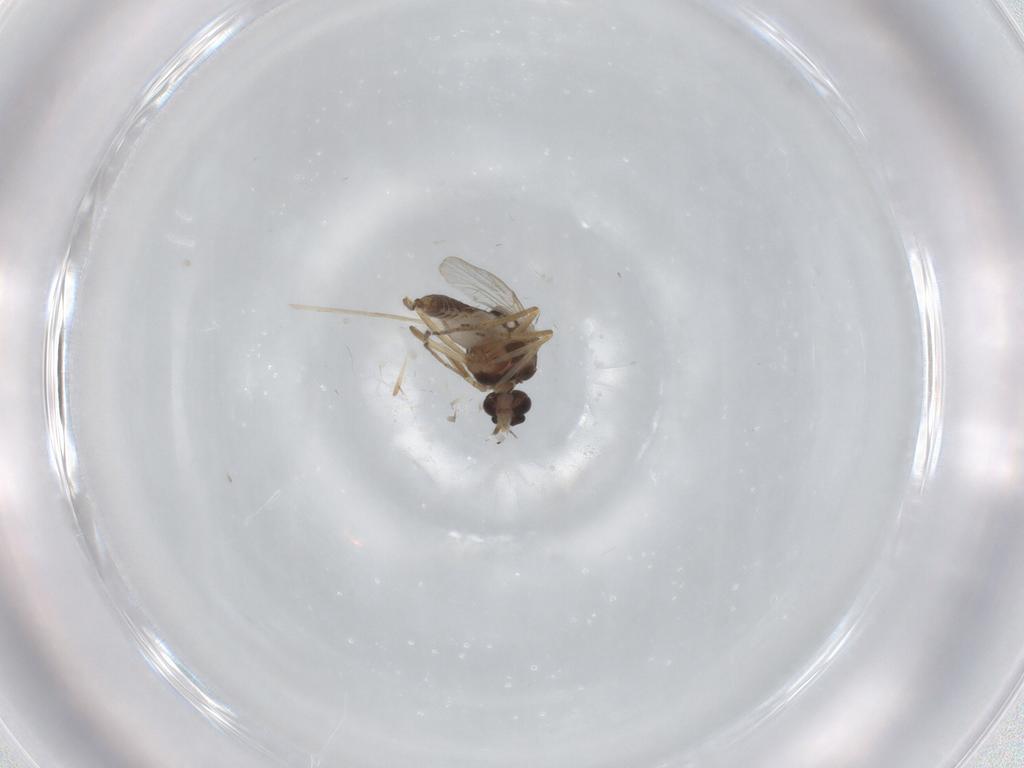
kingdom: Animalia
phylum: Arthropoda
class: Insecta
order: Diptera
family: Ceratopogonidae
